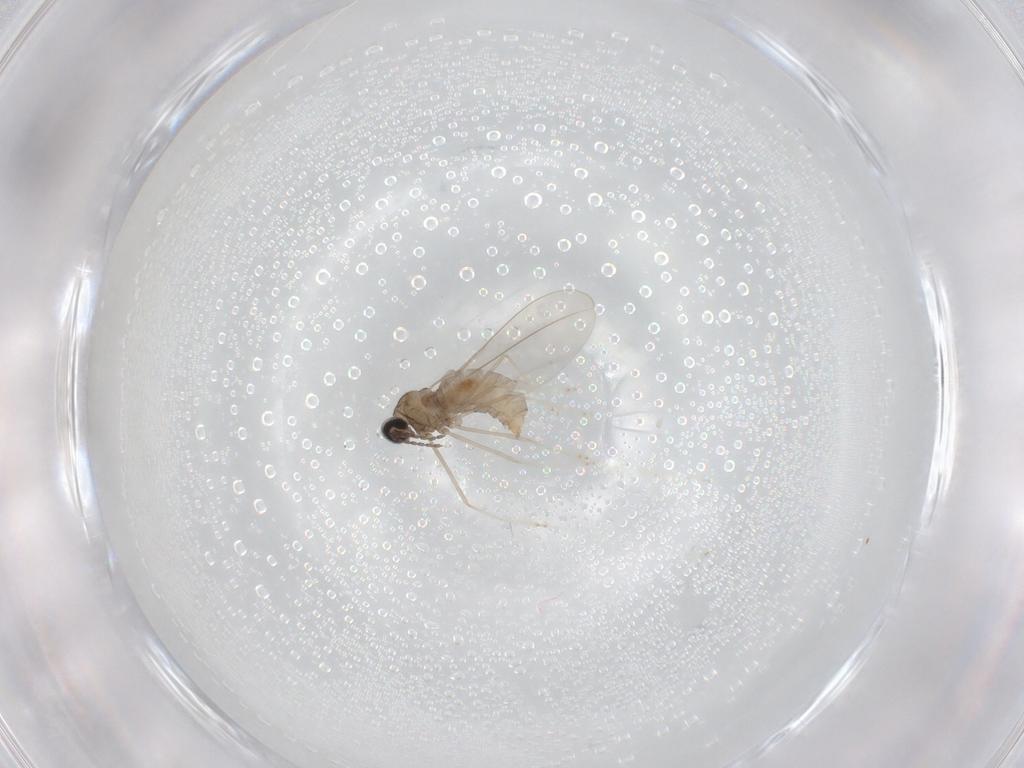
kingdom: Animalia
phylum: Arthropoda
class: Insecta
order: Diptera
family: Cecidomyiidae
